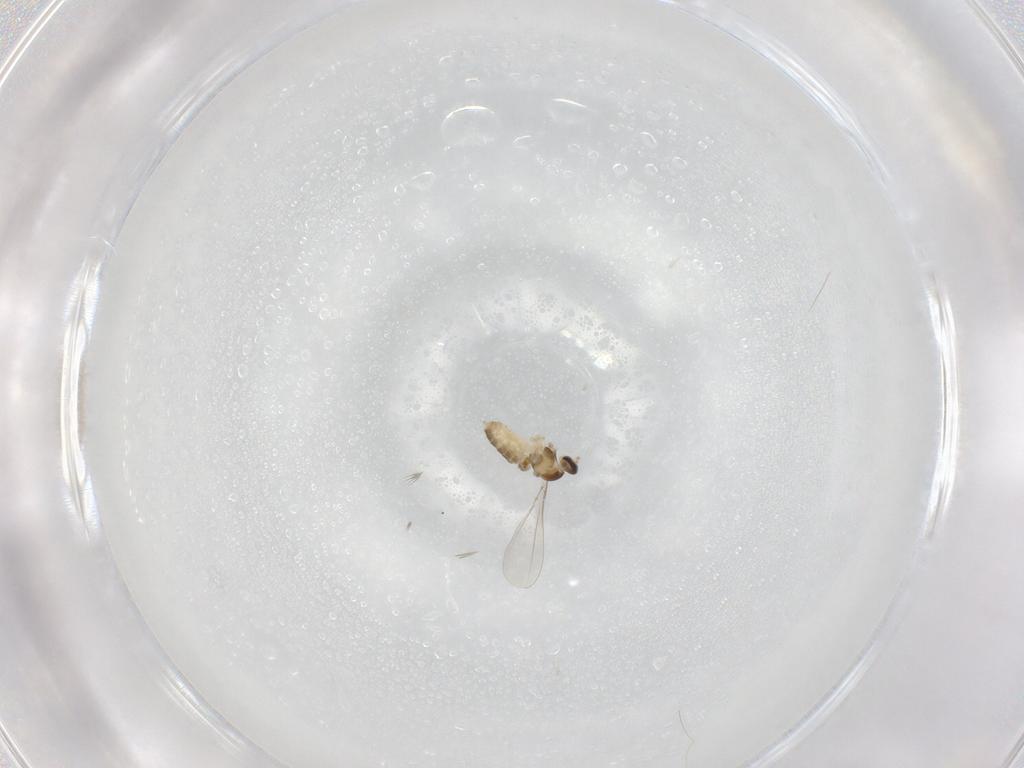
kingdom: Animalia
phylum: Arthropoda
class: Insecta
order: Diptera
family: Cecidomyiidae
